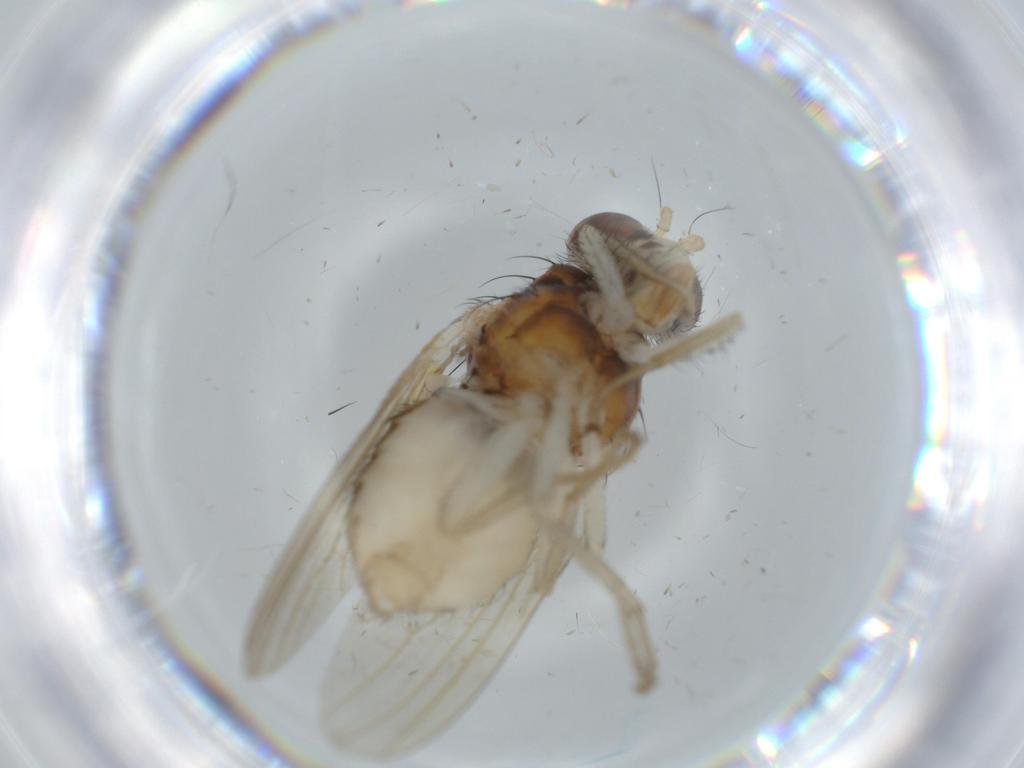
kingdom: Animalia
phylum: Arthropoda
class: Insecta
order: Diptera
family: Lauxaniidae
